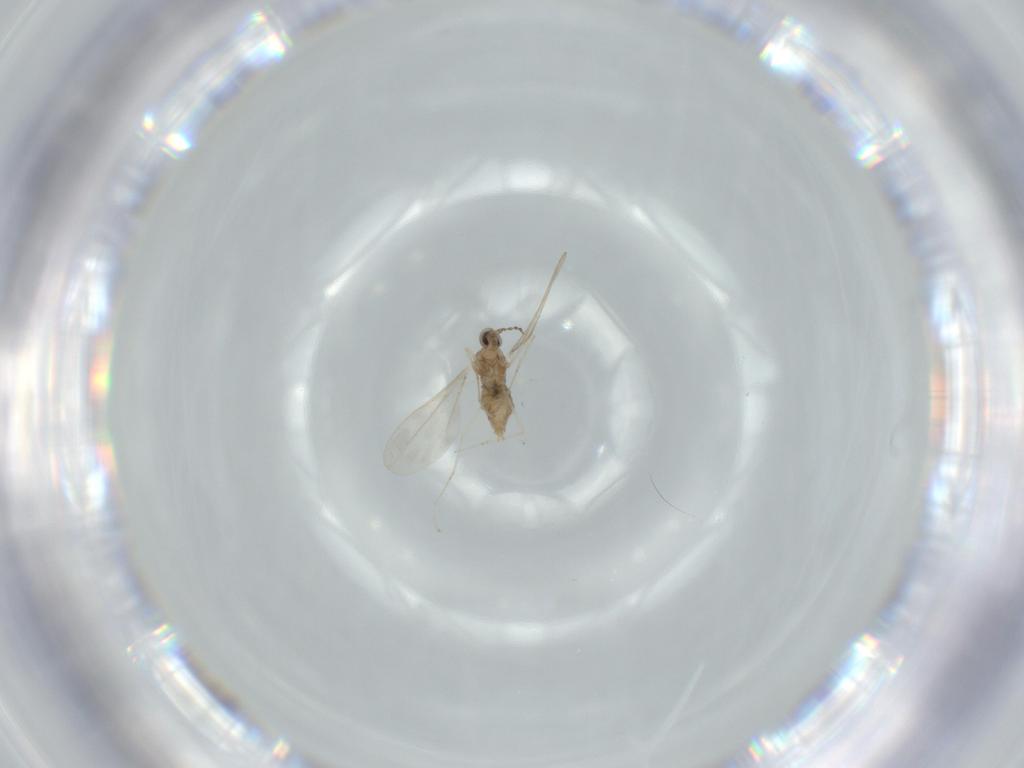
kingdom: Animalia
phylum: Arthropoda
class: Insecta
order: Diptera
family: Cecidomyiidae
